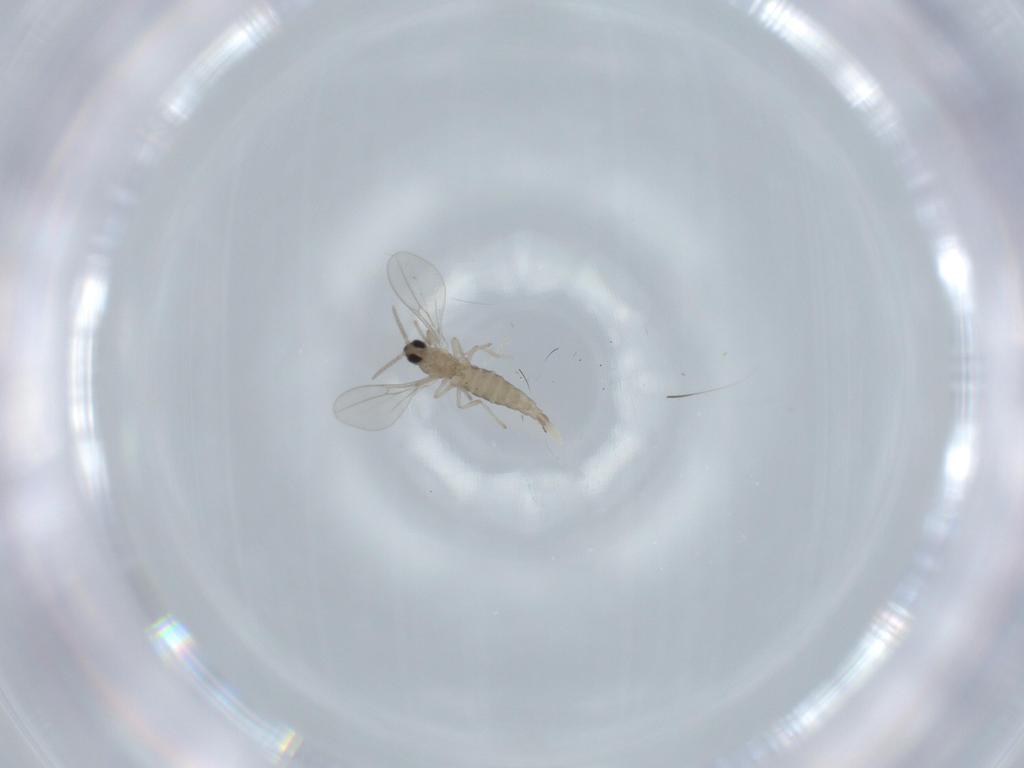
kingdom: Animalia
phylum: Arthropoda
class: Insecta
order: Diptera
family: Cecidomyiidae
